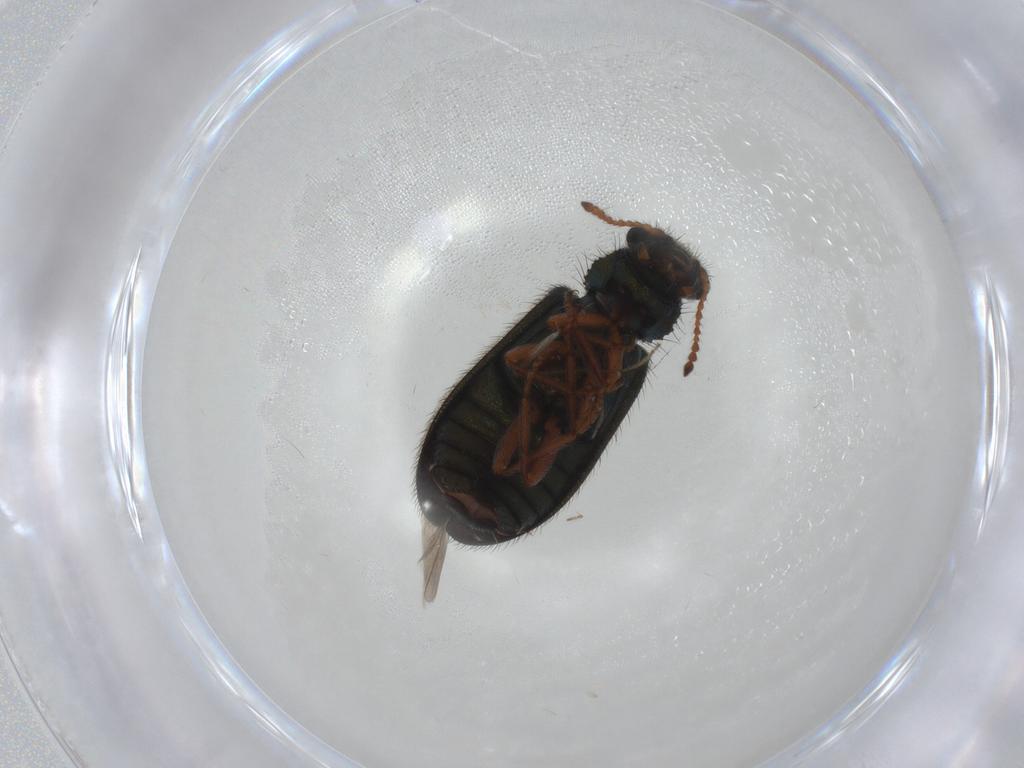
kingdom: Animalia
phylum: Arthropoda
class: Insecta
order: Coleoptera
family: Melyridae
